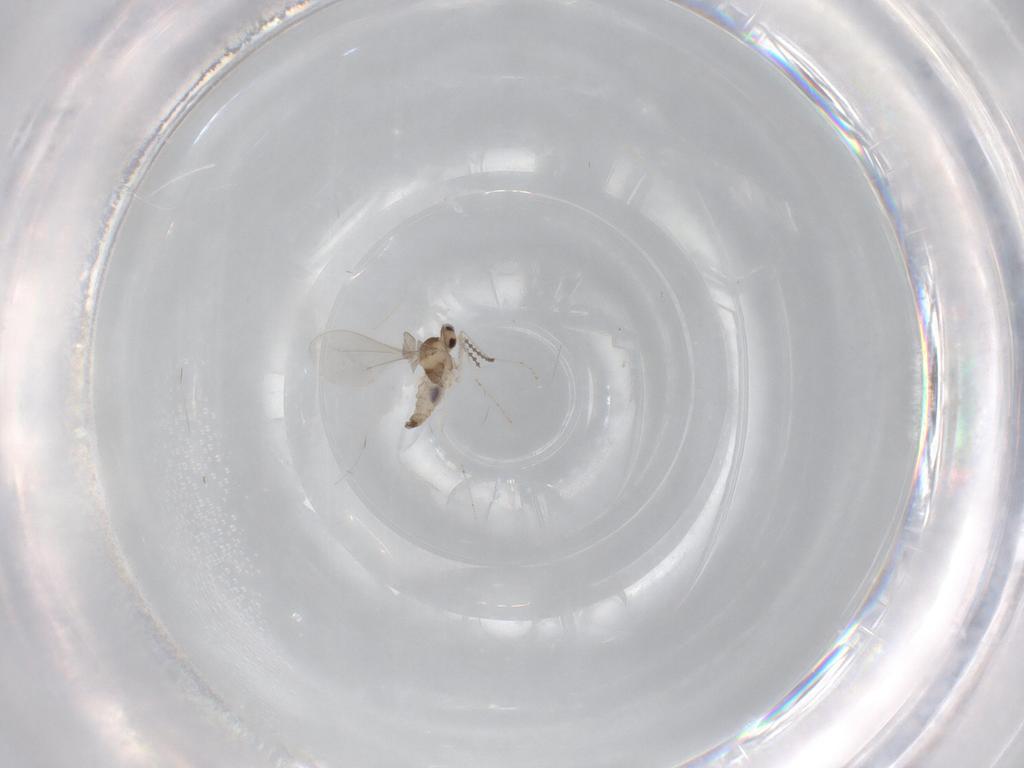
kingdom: Animalia
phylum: Arthropoda
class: Insecta
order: Diptera
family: Cecidomyiidae
